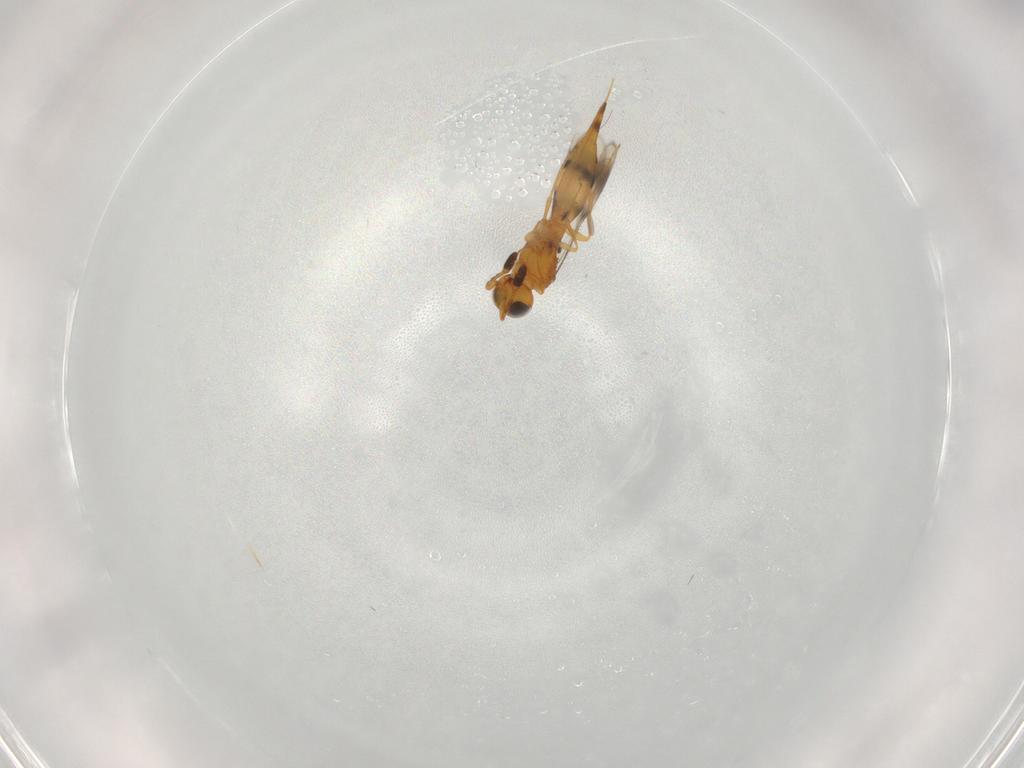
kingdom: Animalia
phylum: Arthropoda
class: Insecta
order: Hymenoptera
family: Scelionidae
